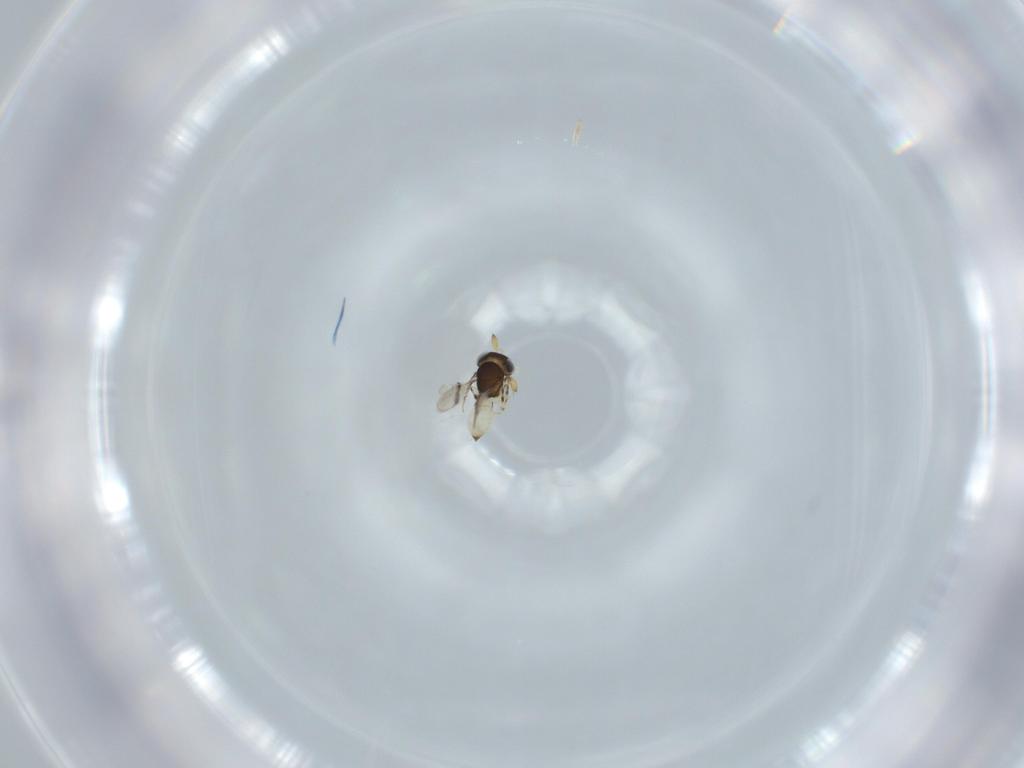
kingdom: Animalia
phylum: Arthropoda
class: Insecta
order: Hymenoptera
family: Scelionidae
